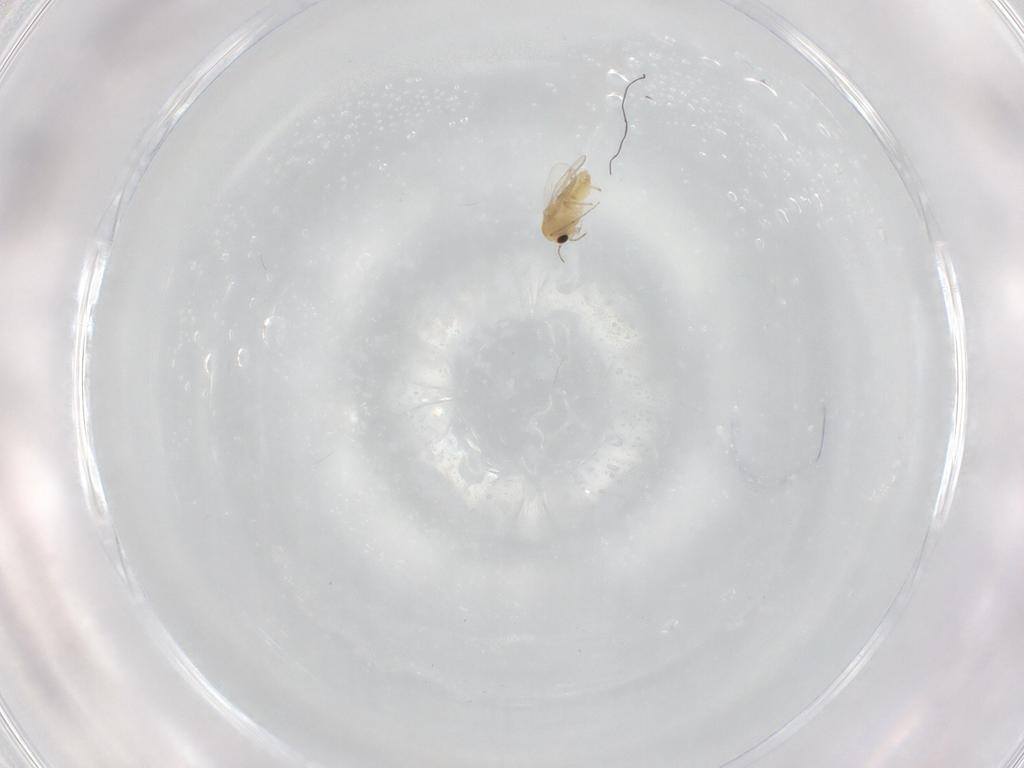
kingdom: Animalia
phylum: Arthropoda
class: Insecta
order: Diptera
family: Chironomidae
